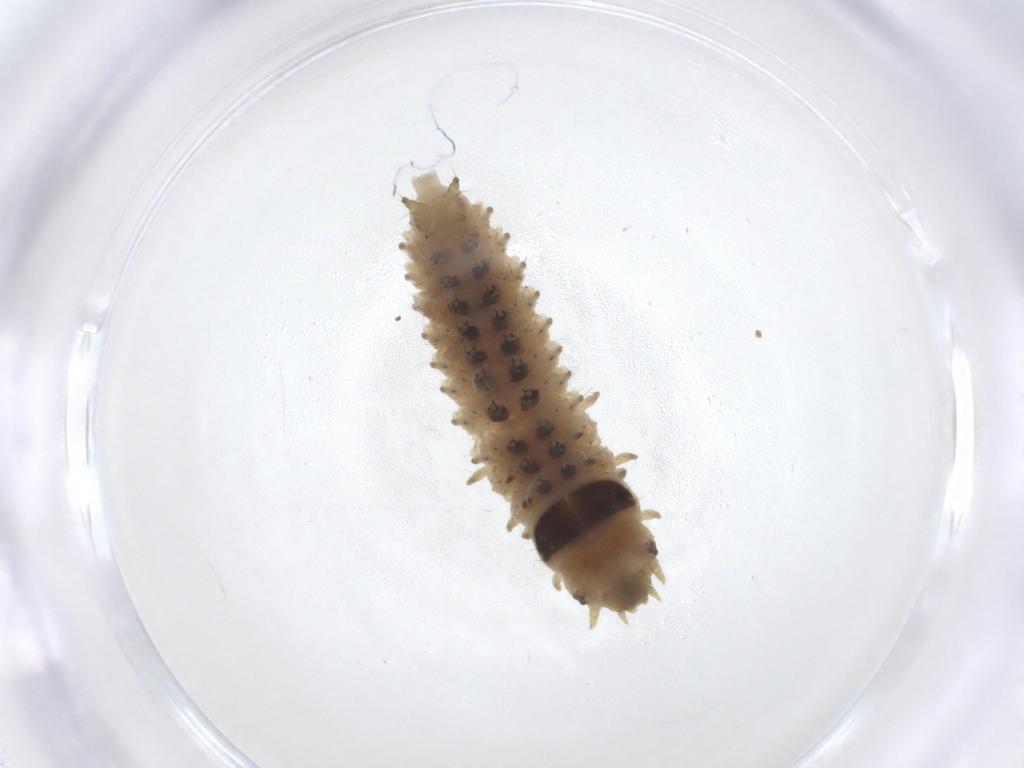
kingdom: Animalia
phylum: Arthropoda
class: Insecta
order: Coleoptera
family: Nitidulidae
